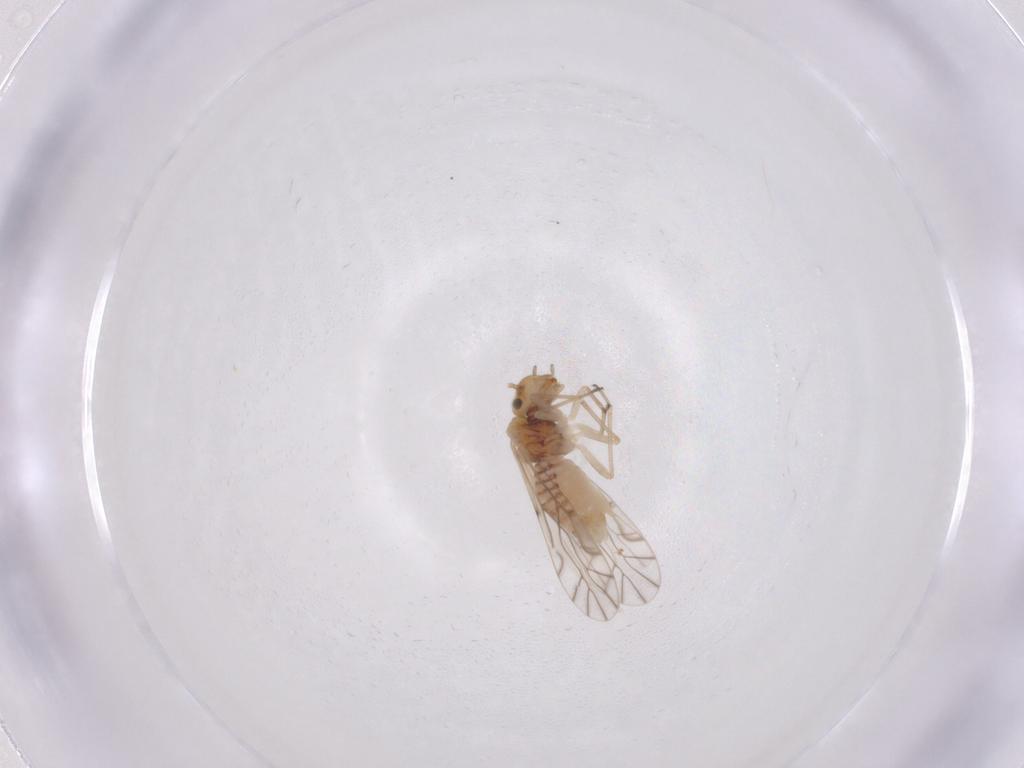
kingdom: Animalia
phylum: Arthropoda
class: Insecta
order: Psocodea
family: Lachesillidae
